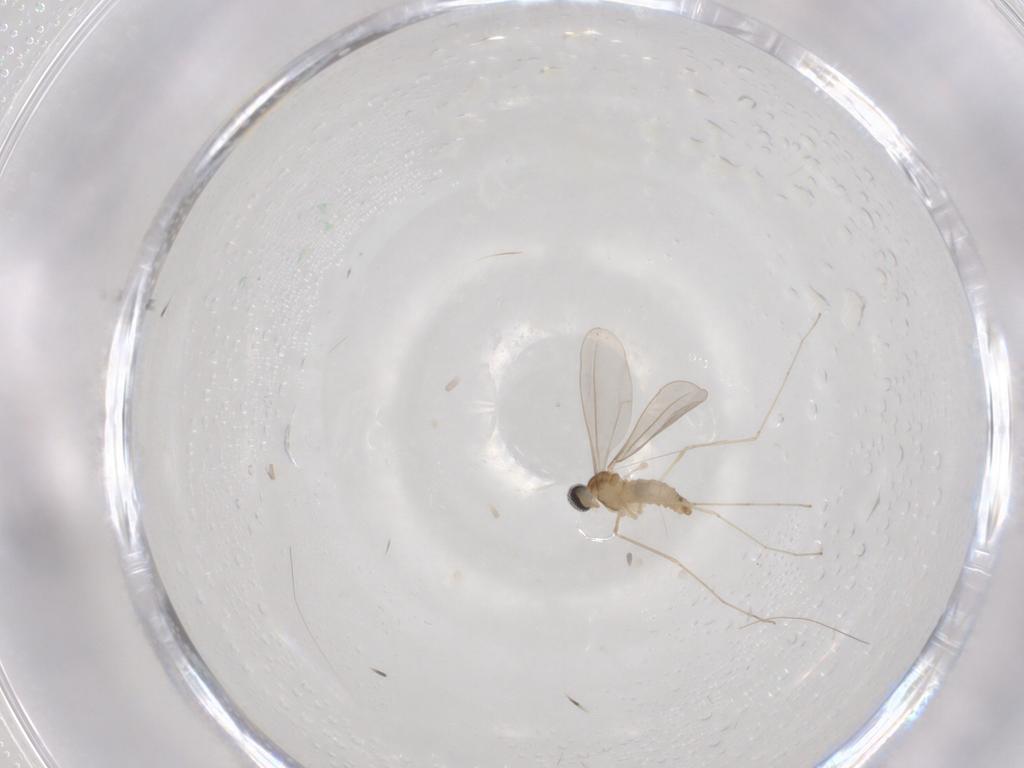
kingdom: Animalia
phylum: Arthropoda
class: Insecta
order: Diptera
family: Cecidomyiidae
